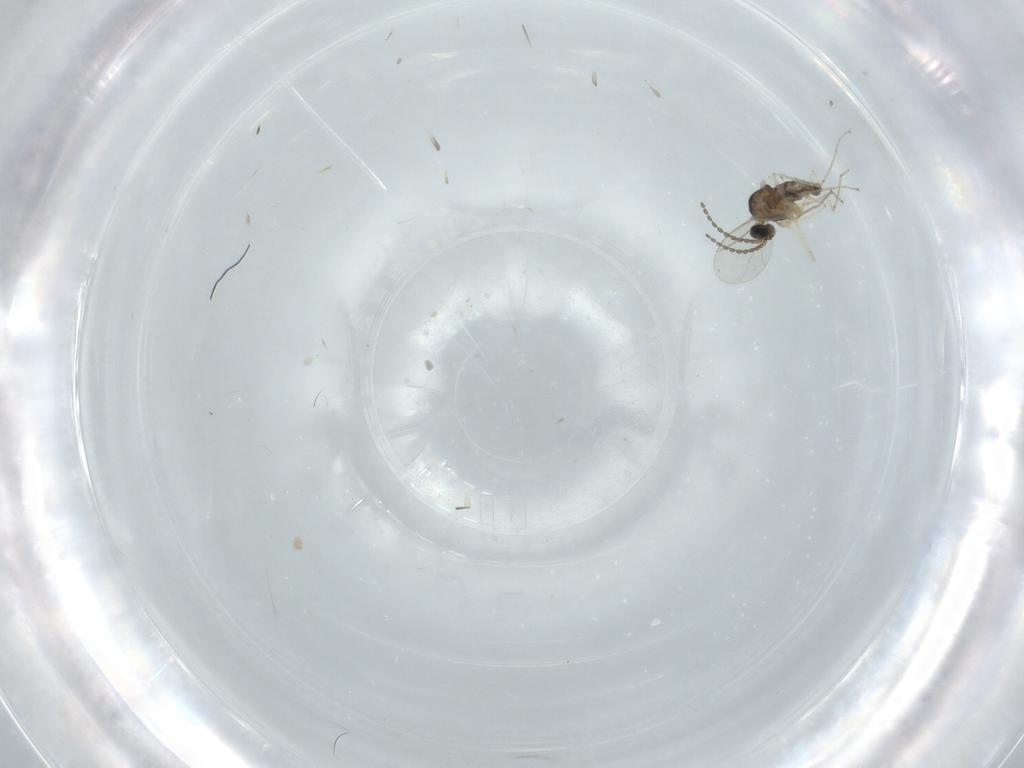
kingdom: Animalia
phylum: Arthropoda
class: Insecta
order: Diptera
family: Cecidomyiidae
